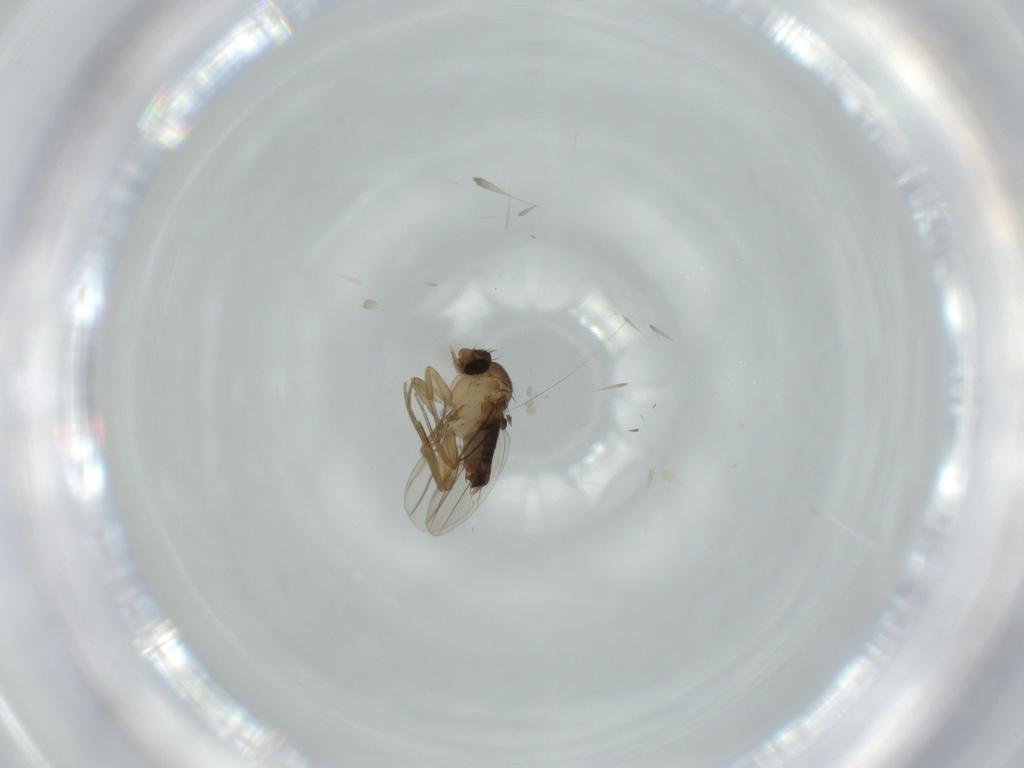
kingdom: Animalia
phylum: Arthropoda
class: Insecta
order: Diptera
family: Phoridae
